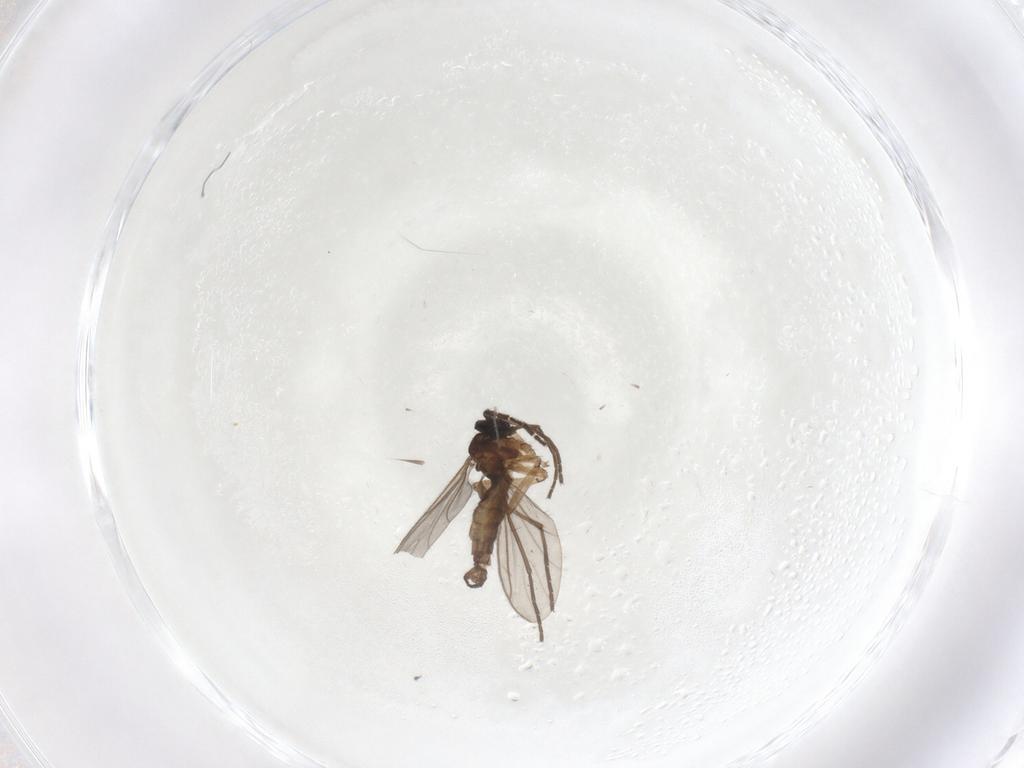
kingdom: Animalia
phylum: Arthropoda
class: Insecta
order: Diptera
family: Sciaridae
